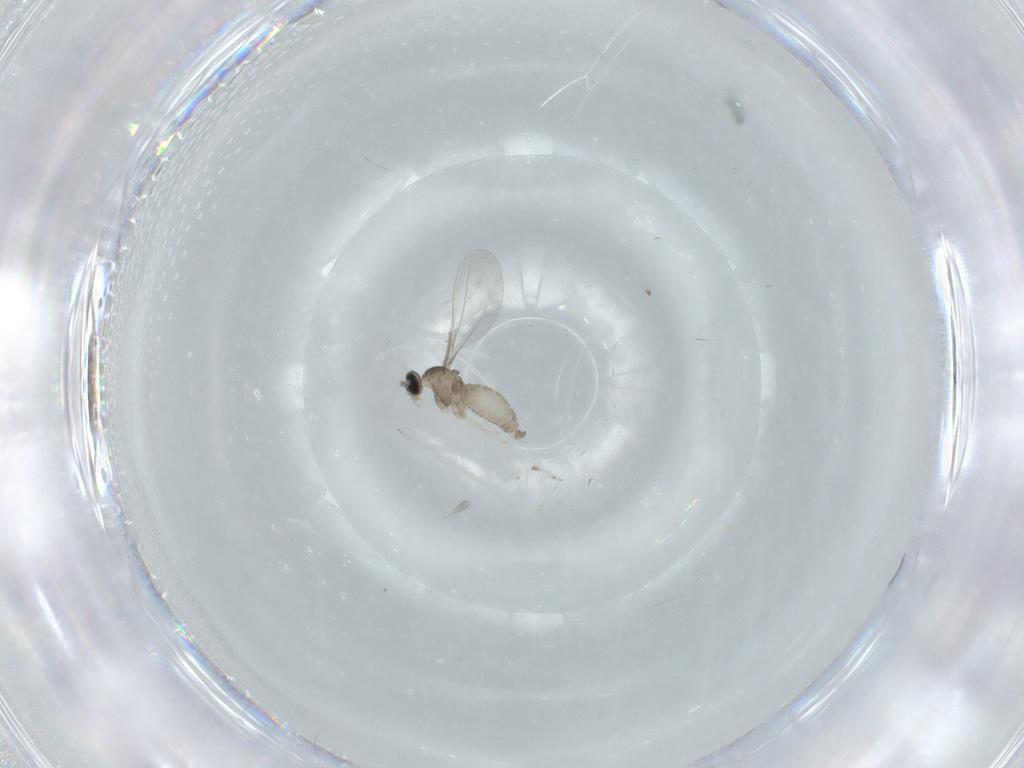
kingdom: Animalia
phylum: Arthropoda
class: Insecta
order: Diptera
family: Cecidomyiidae
